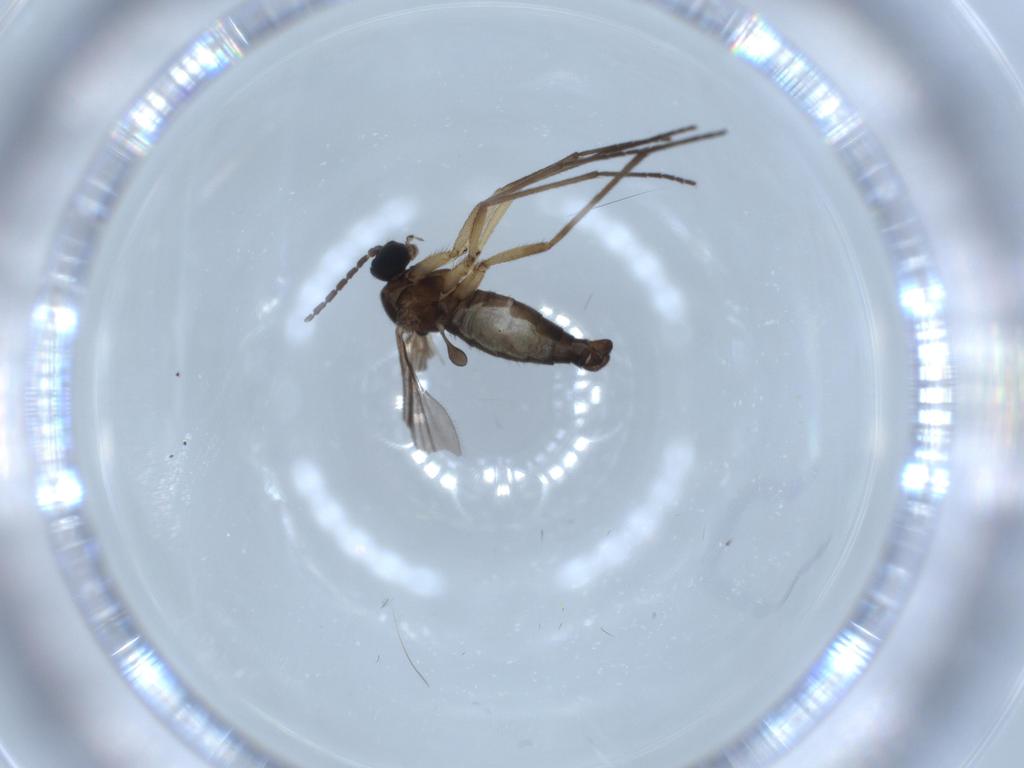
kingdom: Animalia
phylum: Arthropoda
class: Insecta
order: Diptera
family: Sciaridae
